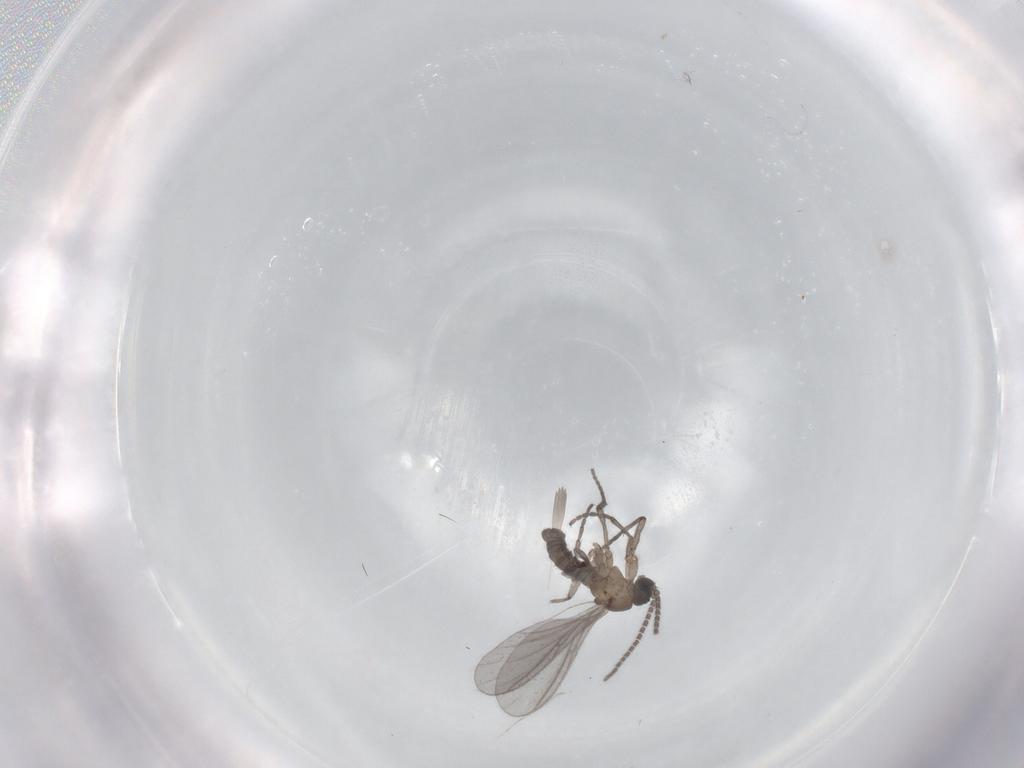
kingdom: Animalia
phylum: Arthropoda
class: Insecta
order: Diptera
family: Sciaridae
